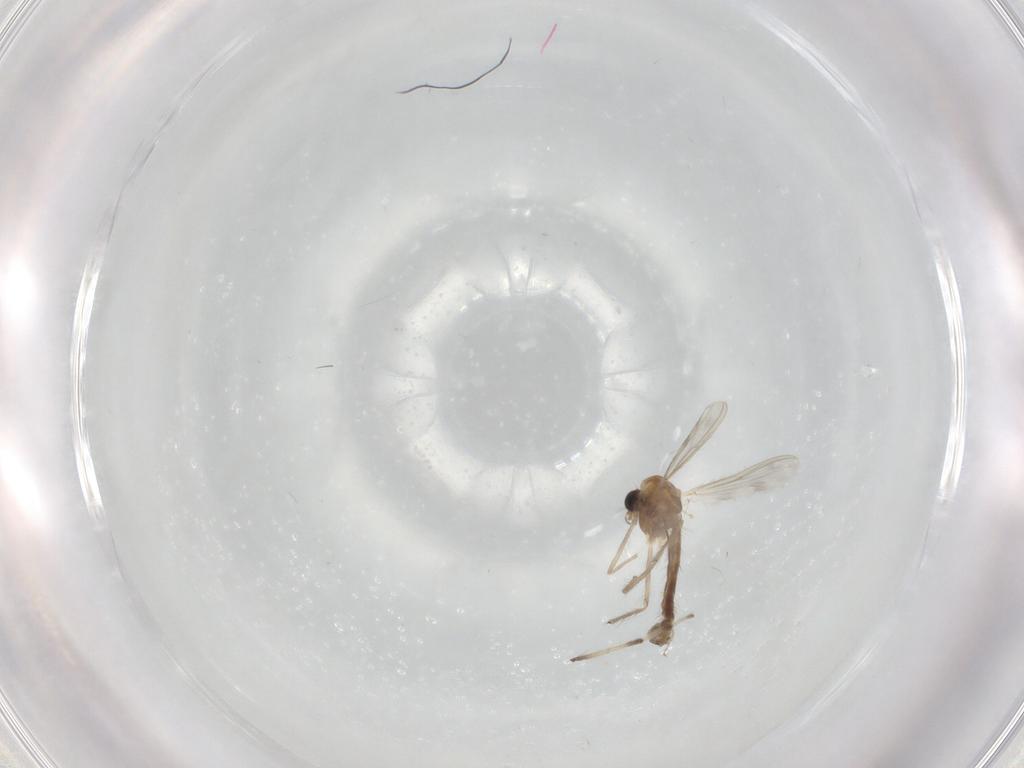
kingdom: Animalia
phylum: Arthropoda
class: Insecta
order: Diptera
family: Chironomidae
